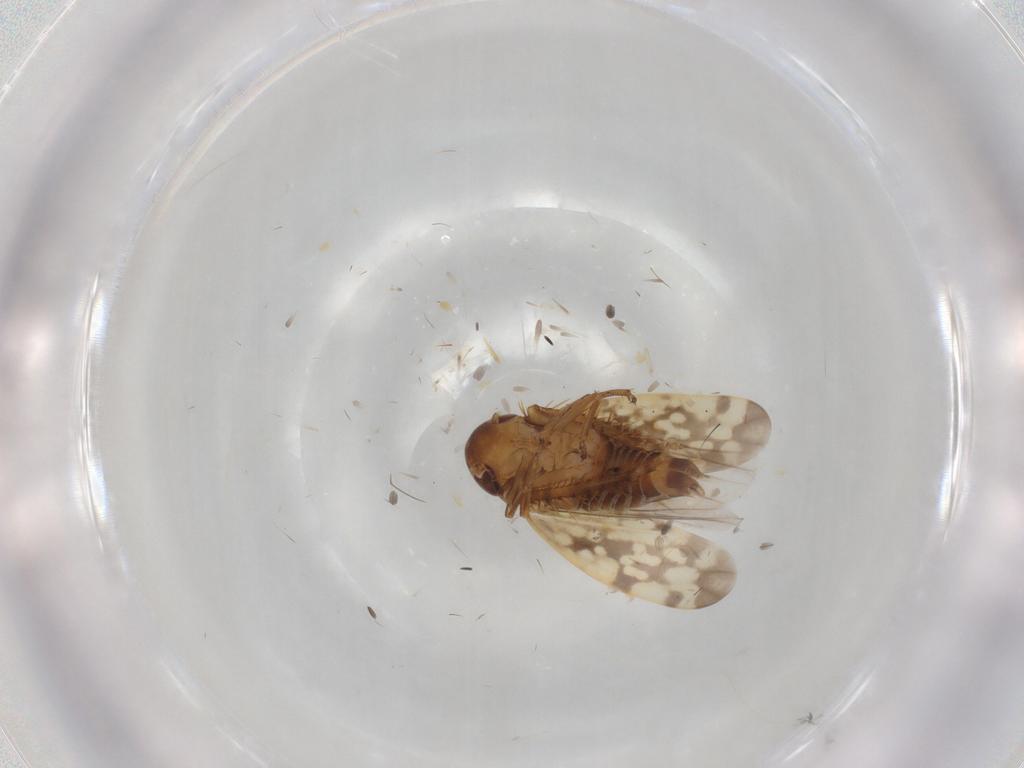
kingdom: Animalia
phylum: Arthropoda
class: Insecta
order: Hemiptera
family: Cicadellidae
